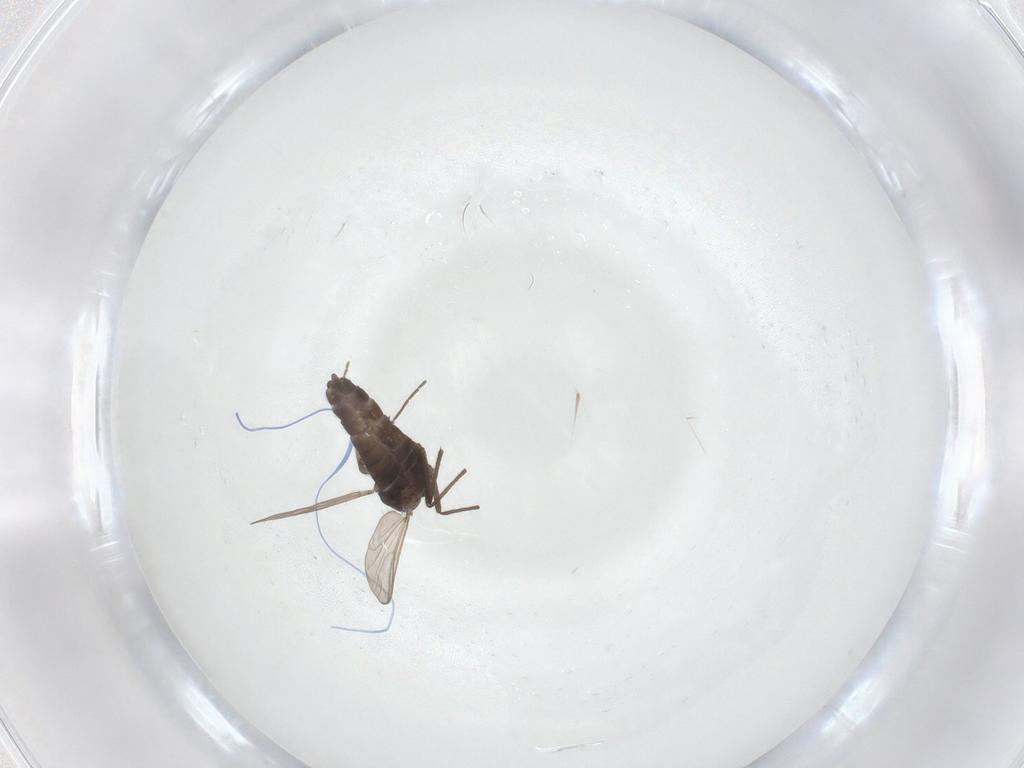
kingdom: Animalia
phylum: Arthropoda
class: Insecta
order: Diptera
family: Chironomidae
